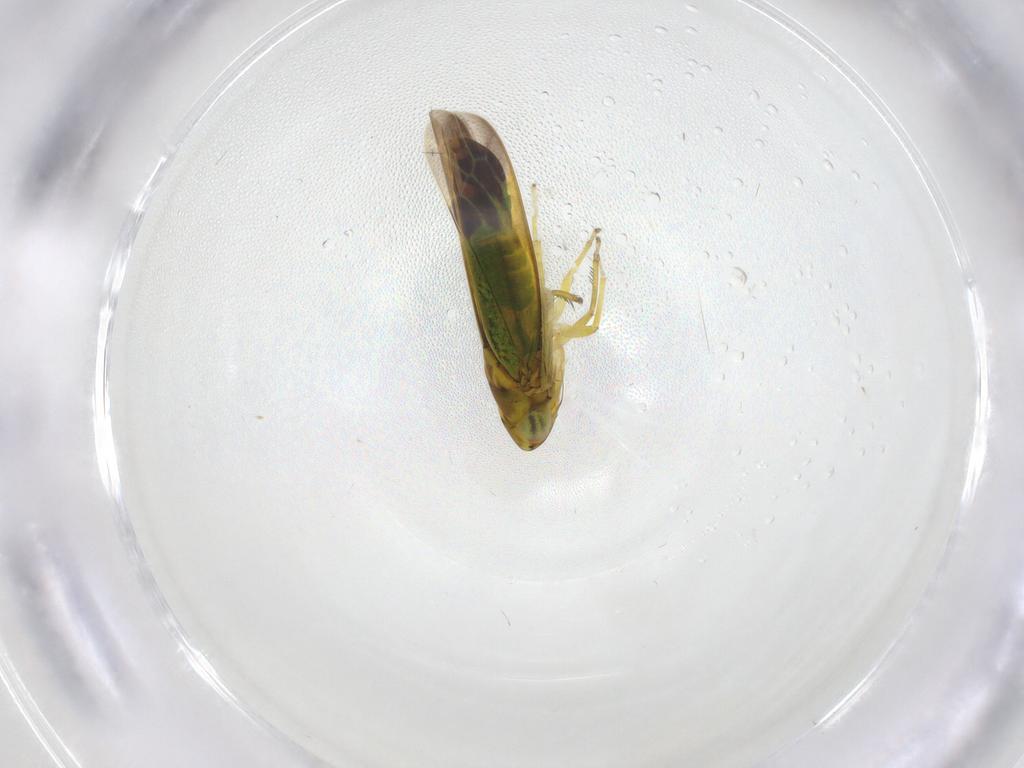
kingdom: Animalia
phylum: Arthropoda
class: Insecta
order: Hemiptera
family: Cicadellidae
